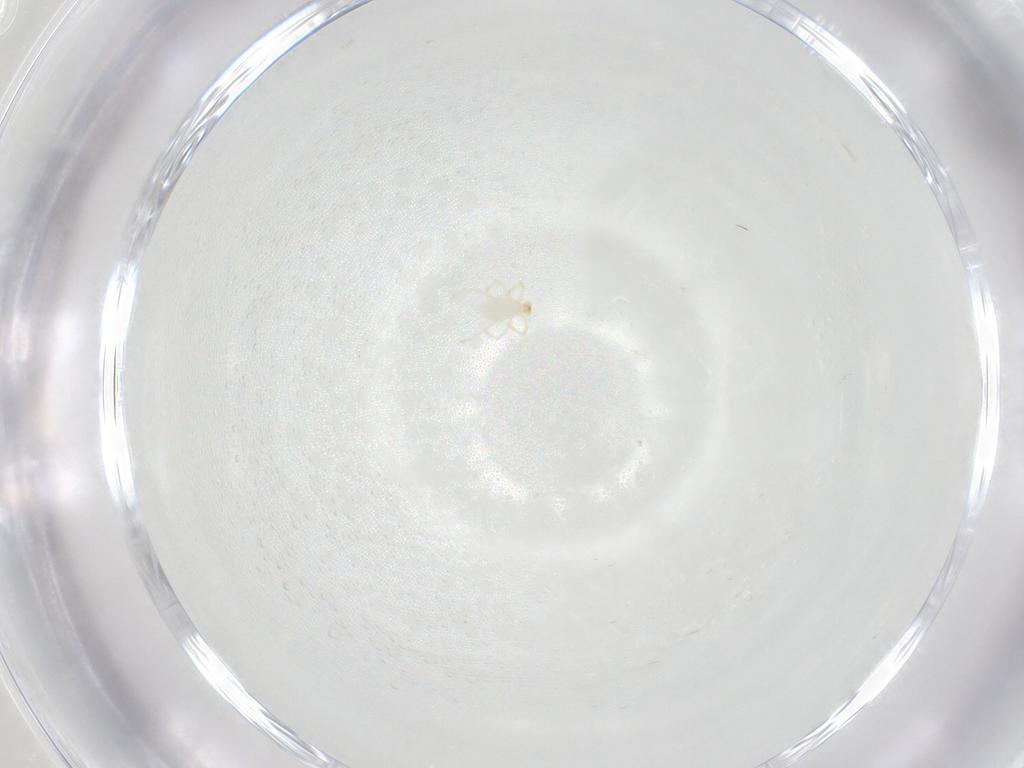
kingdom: Animalia
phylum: Arthropoda
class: Arachnida
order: Trombidiformes
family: Erythraeidae
